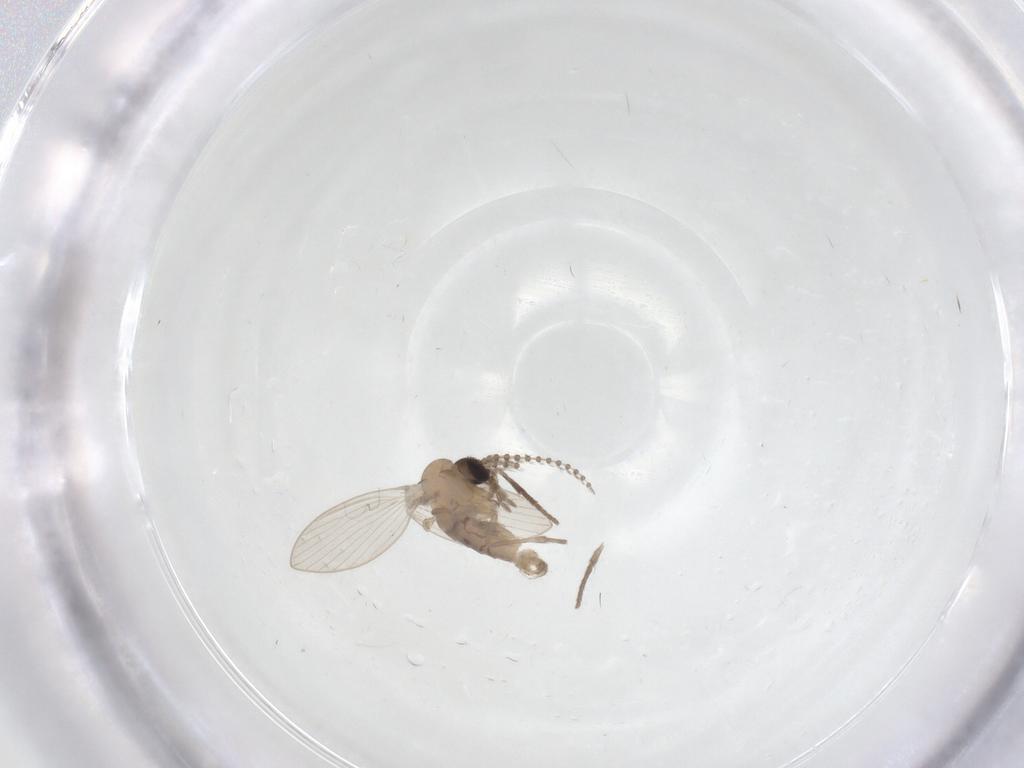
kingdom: Animalia
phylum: Arthropoda
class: Insecta
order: Diptera
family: Psychodidae
